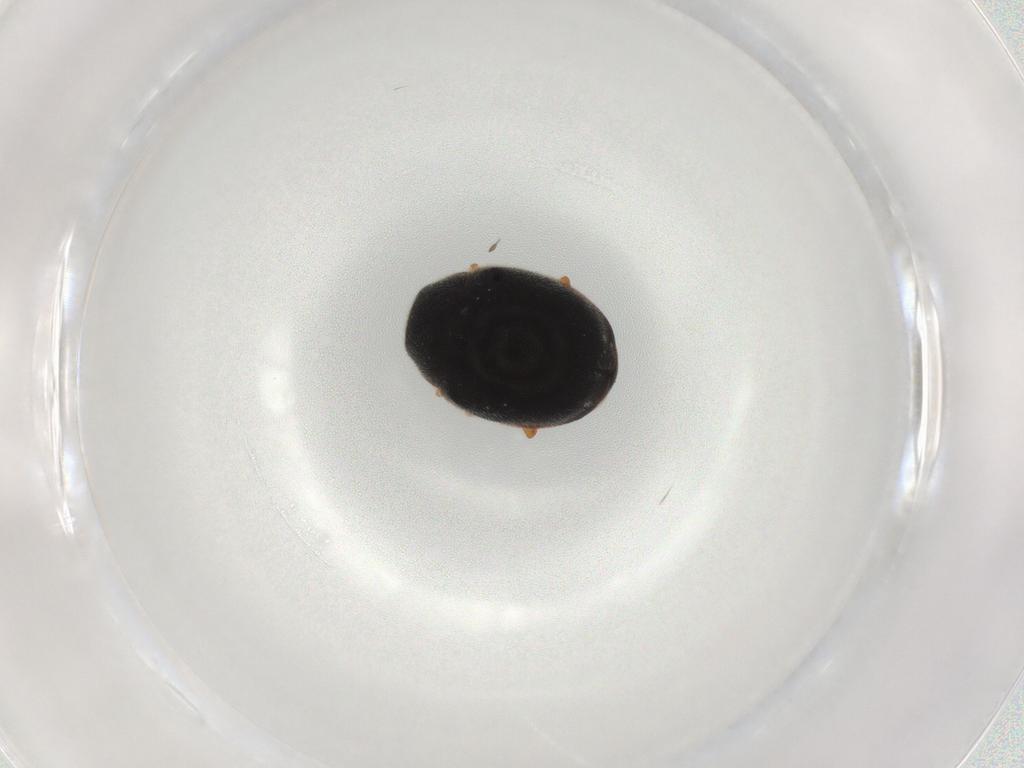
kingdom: Animalia
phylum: Arthropoda
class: Insecta
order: Coleoptera
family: Coccinellidae
